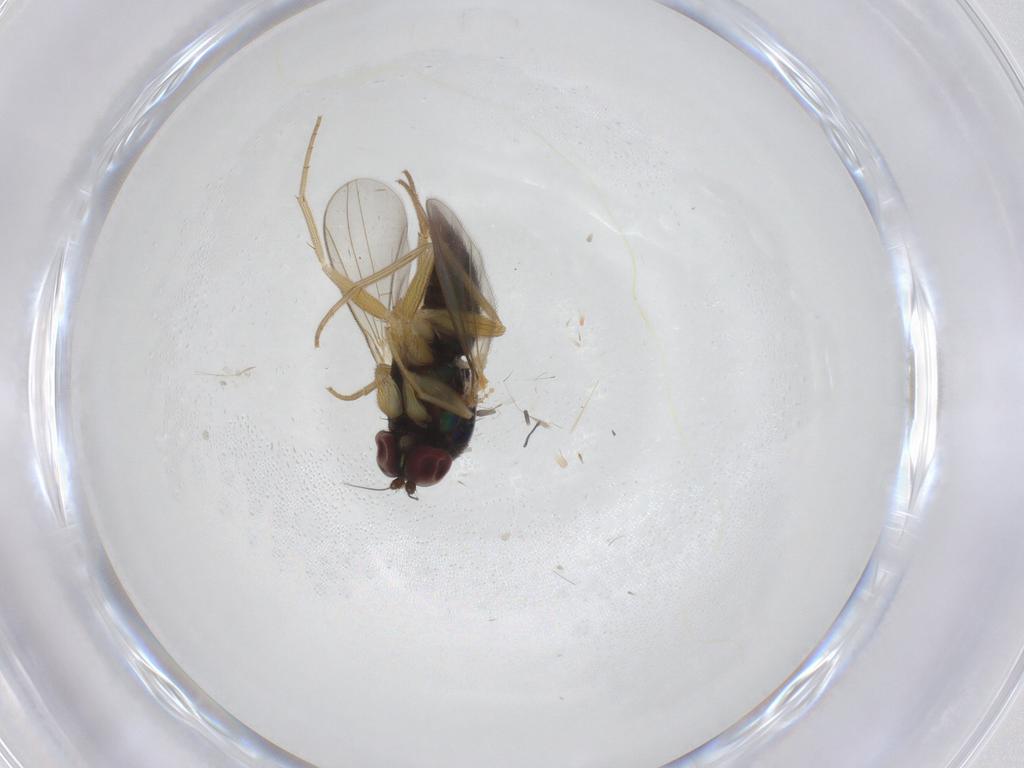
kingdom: Animalia
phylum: Arthropoda
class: Insecta
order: Diptera
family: Dolichopodidae
